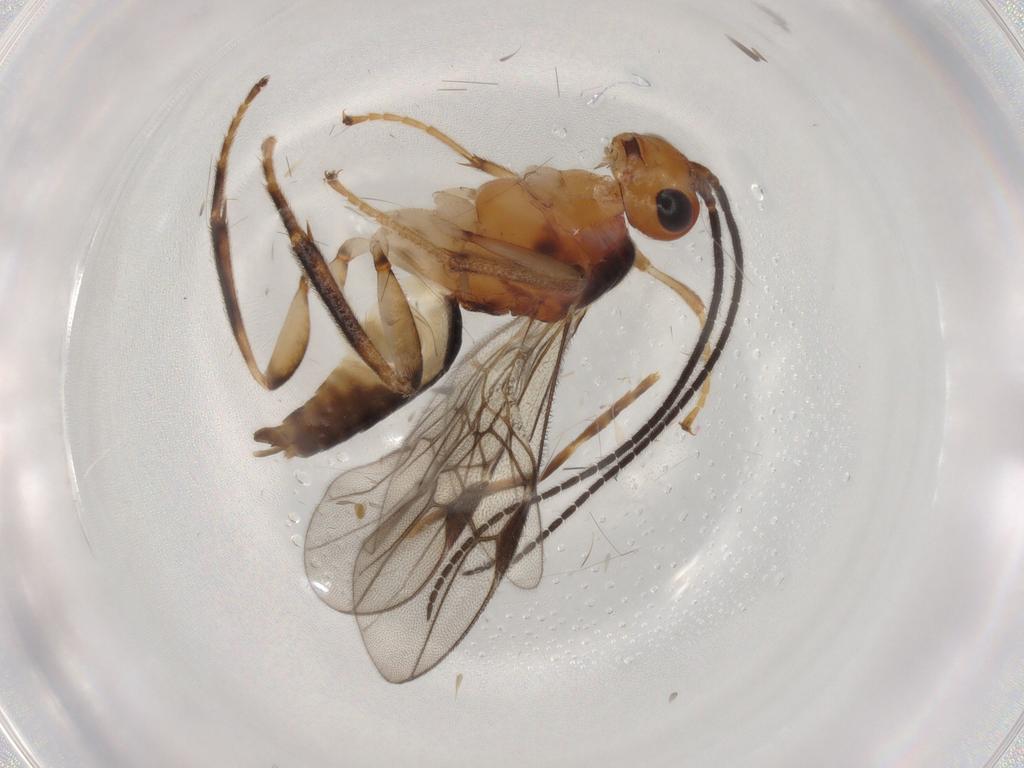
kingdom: Animalia
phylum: Arthropoda
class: Insecta
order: Hymenoptera
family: Braconidae
